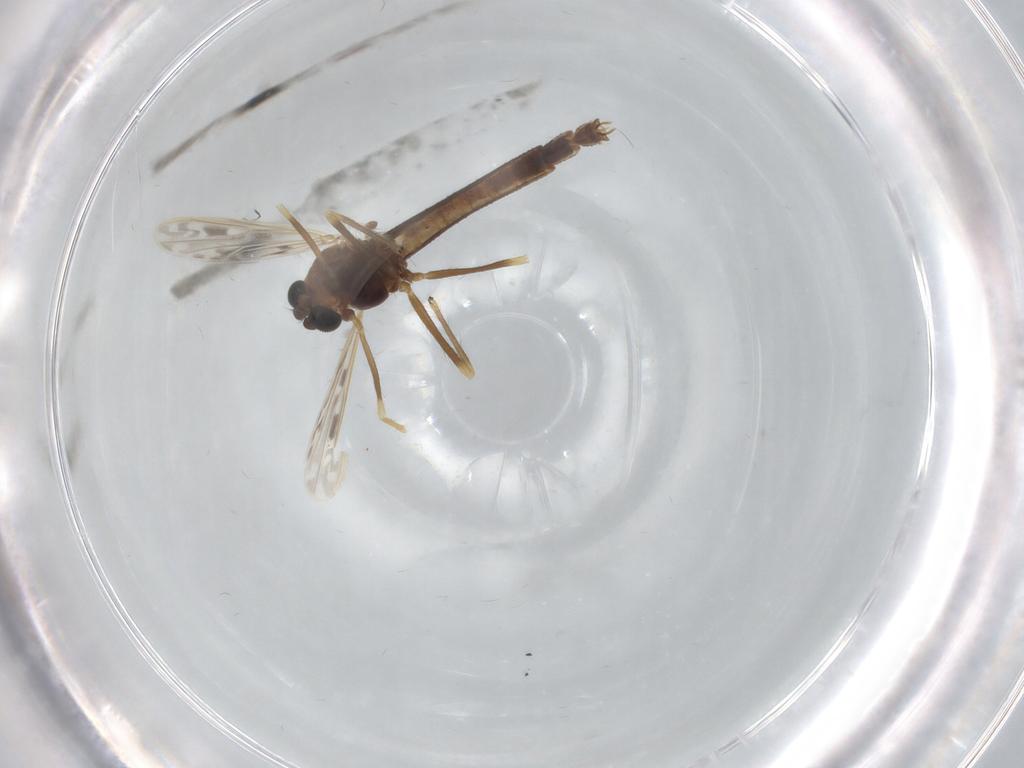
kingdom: Animalia
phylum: Arthropoda
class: Insecta
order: Diptera
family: Chironomidae
